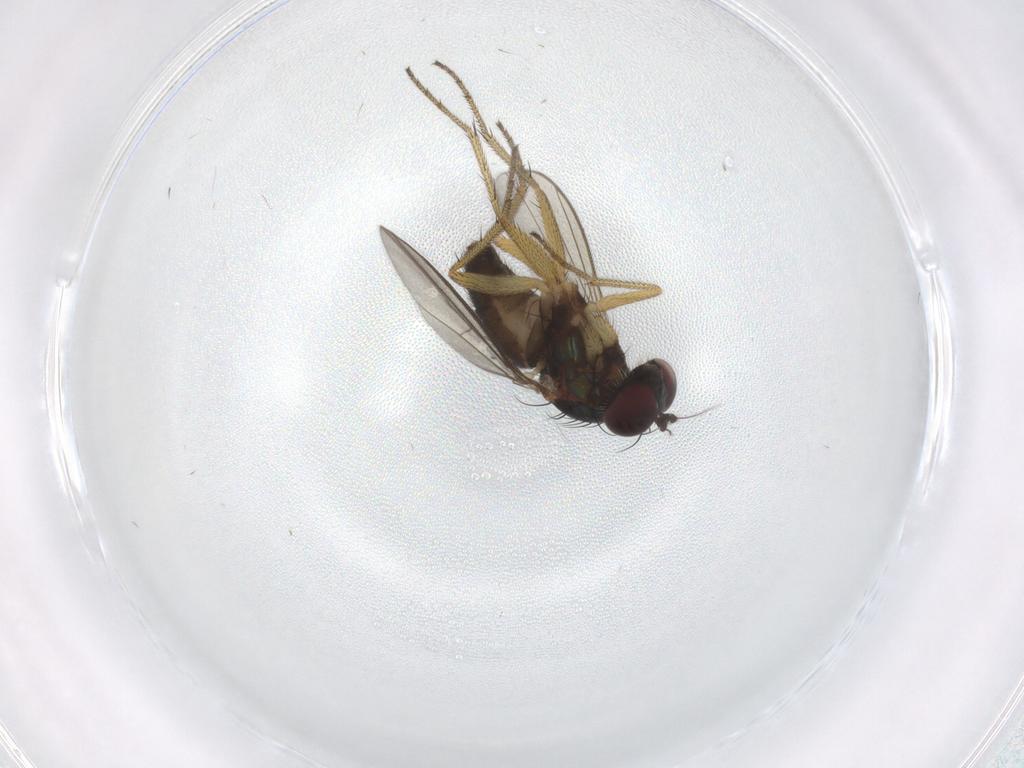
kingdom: Animalia
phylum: Arthropoda
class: Insecta
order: Diptera
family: Dolichopodidae
